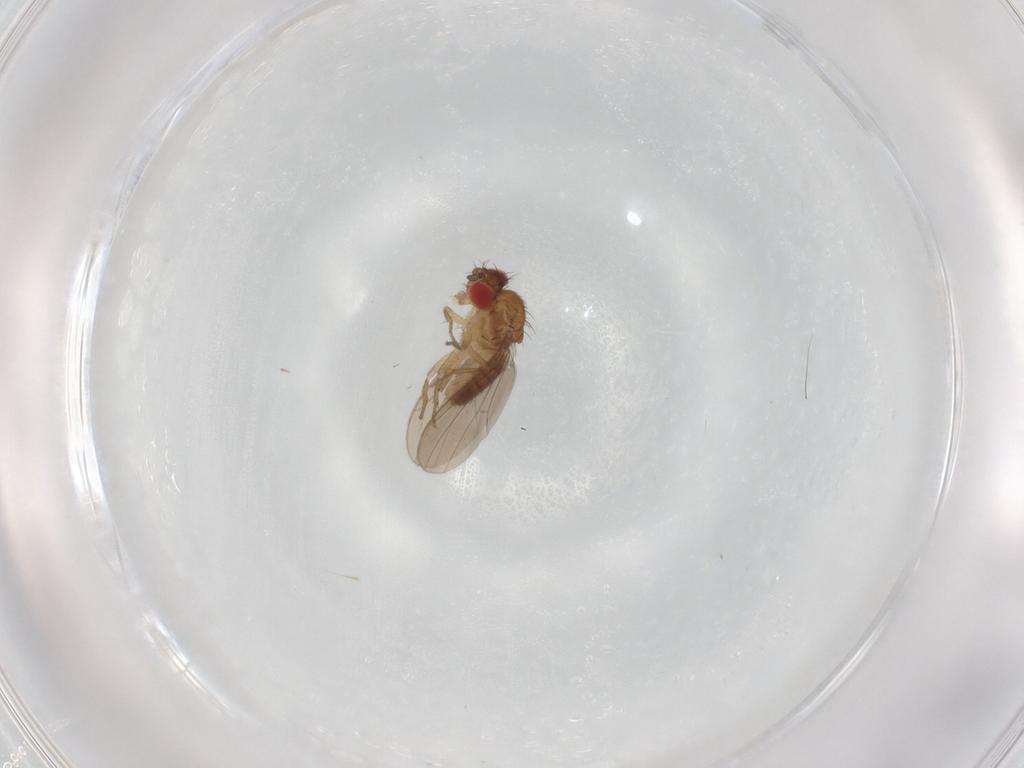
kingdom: Animalia
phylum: Arthropoda
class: Insecta
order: Diptera
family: Drosophilidae
